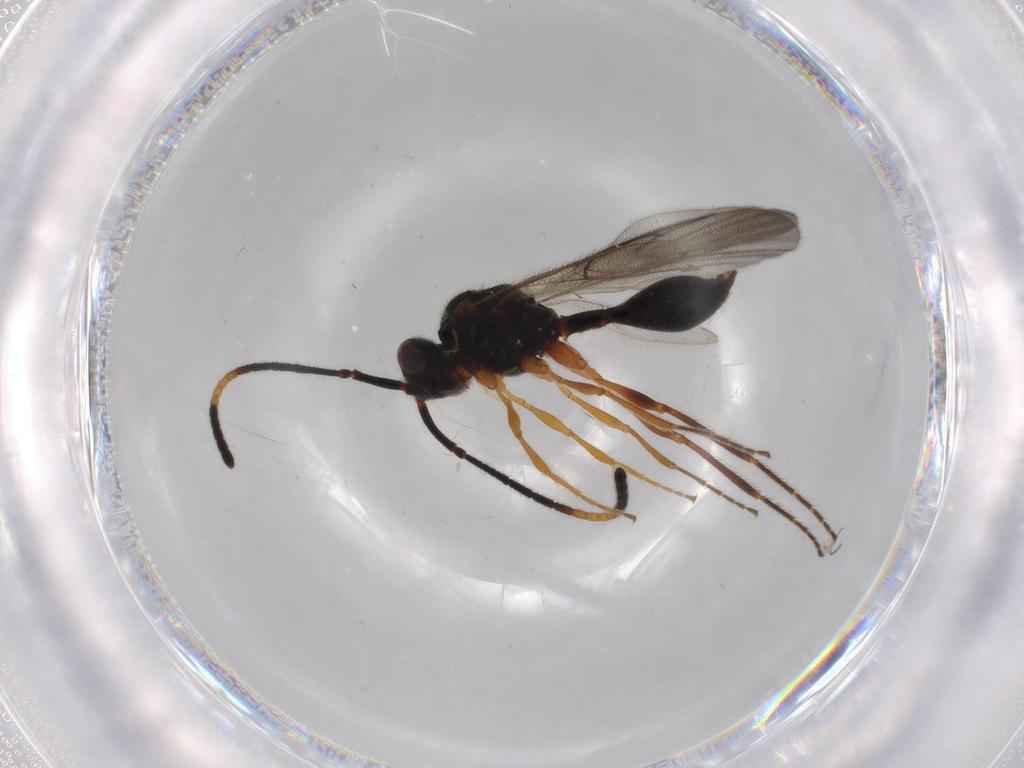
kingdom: Animalia
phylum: Arthropoda
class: Insecta
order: Hymenoptera
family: Diapriidae
